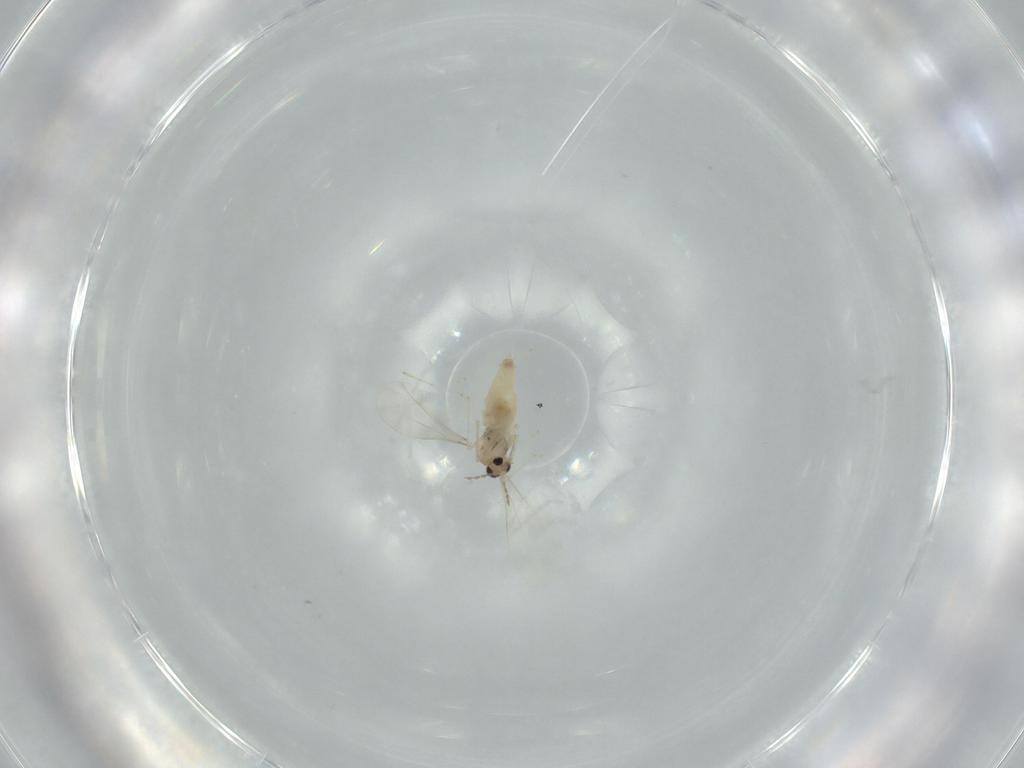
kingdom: Animalia
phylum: Arthropoda
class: Insecta
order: Diptera
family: Cecidomyiidae
